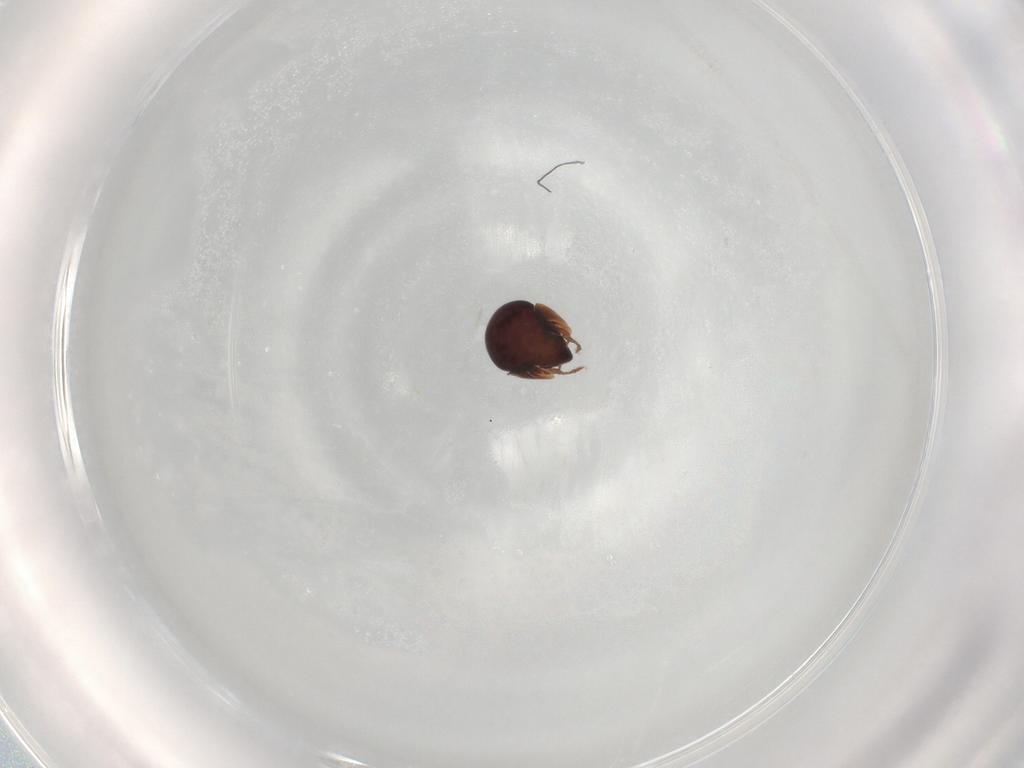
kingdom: Animalia
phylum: Arthropoda
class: Arachnida
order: Sarcoptiformes
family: Galumnidae
